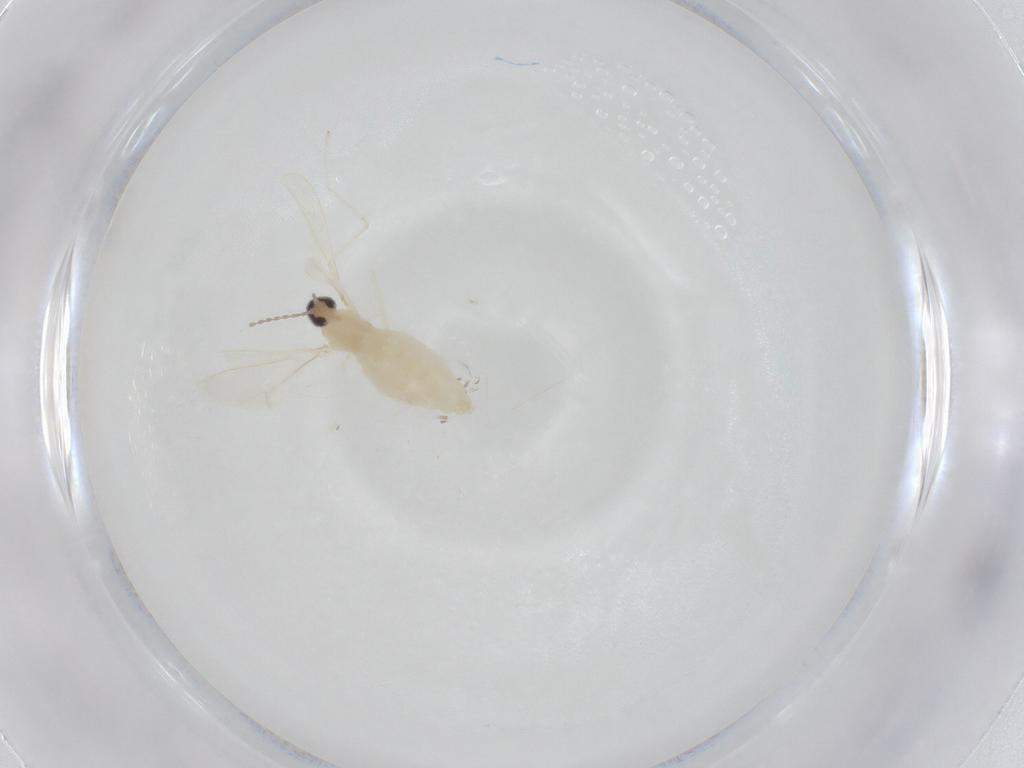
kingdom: Animalia
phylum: Arthropoda
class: Insecta
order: Diptera
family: Cecidomyiidae
